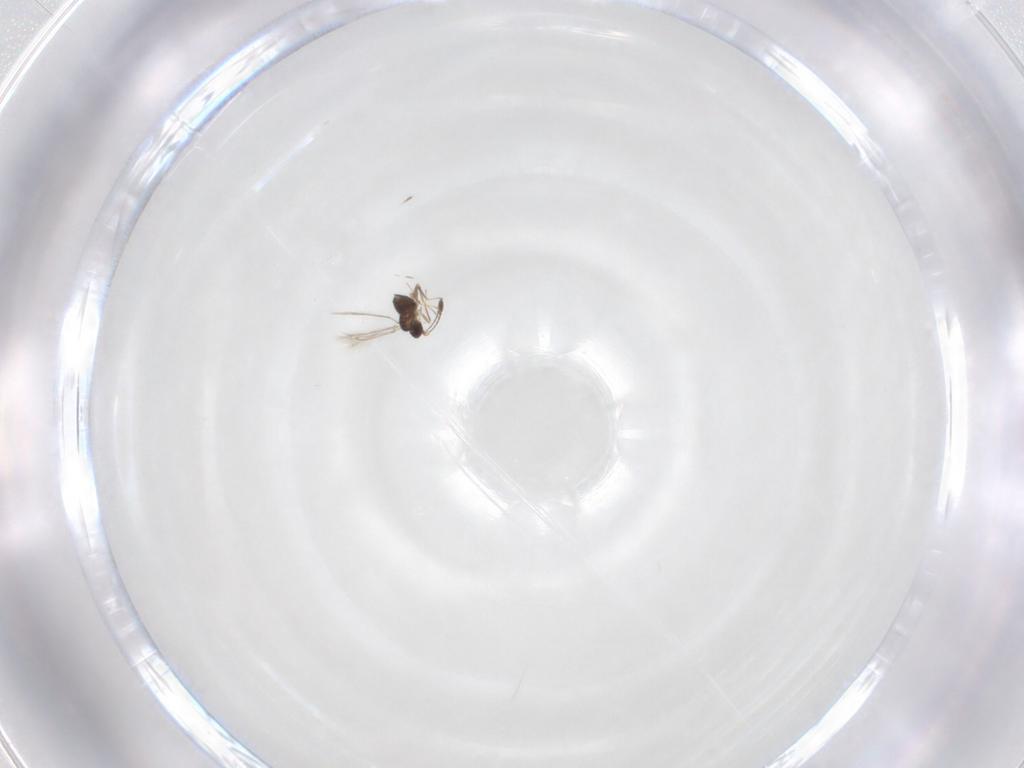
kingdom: Animalia
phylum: Arthropoda
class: Insecta
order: Hymenoptera
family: Mymaridae
